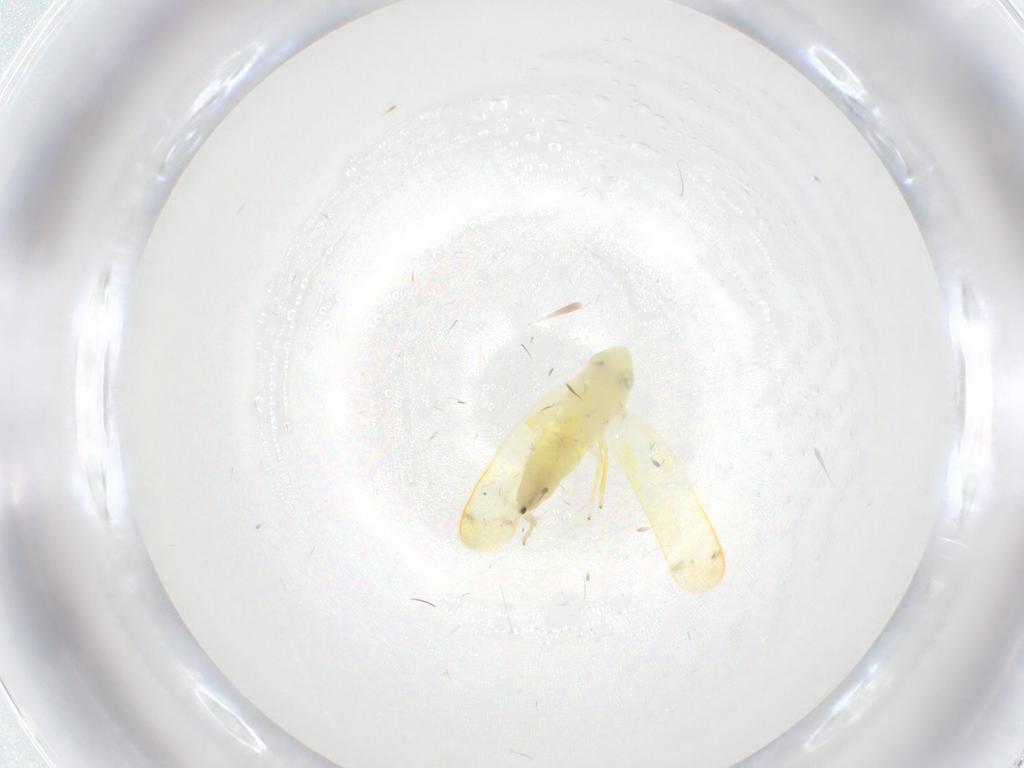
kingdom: Animalia
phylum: Arthropoda
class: Insecta
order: Hemiptera
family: Cicadellidae
